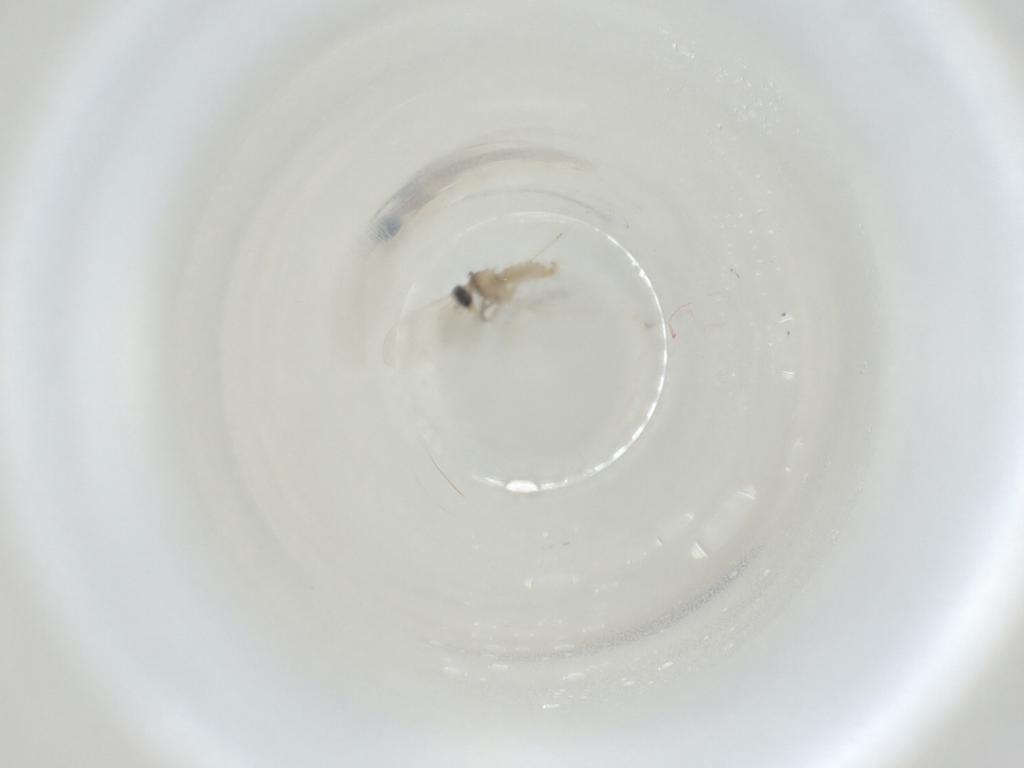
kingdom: Animalia
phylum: Arthropoda
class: Insecta
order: Diptera
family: Cecidomyiidae
